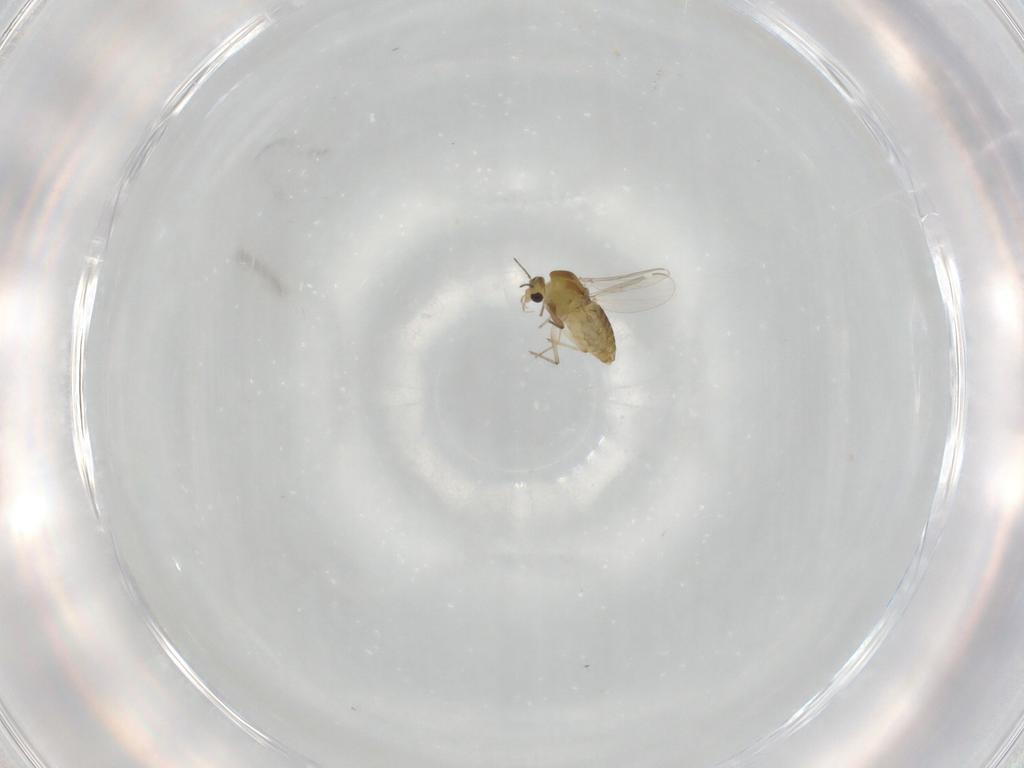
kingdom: Animalia
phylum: Arthropoda
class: Insecta
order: Diptera
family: Chironomidae
